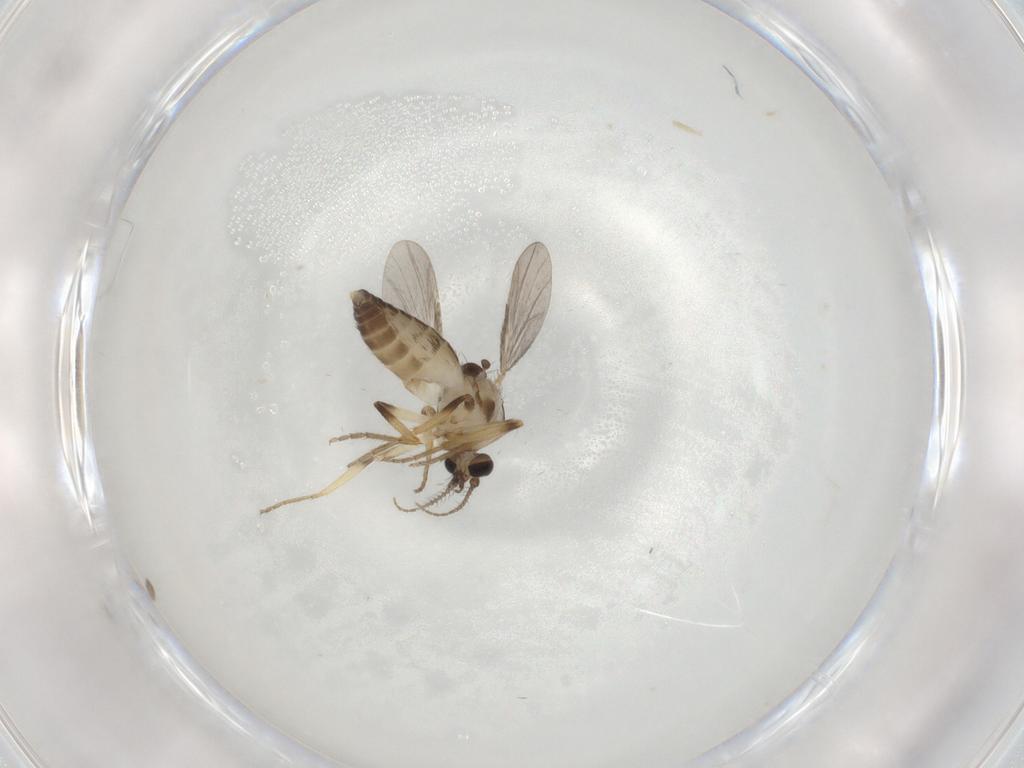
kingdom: Animalia
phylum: Arthropoda
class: Insecta
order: Diptera
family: Ceratopogonidae
